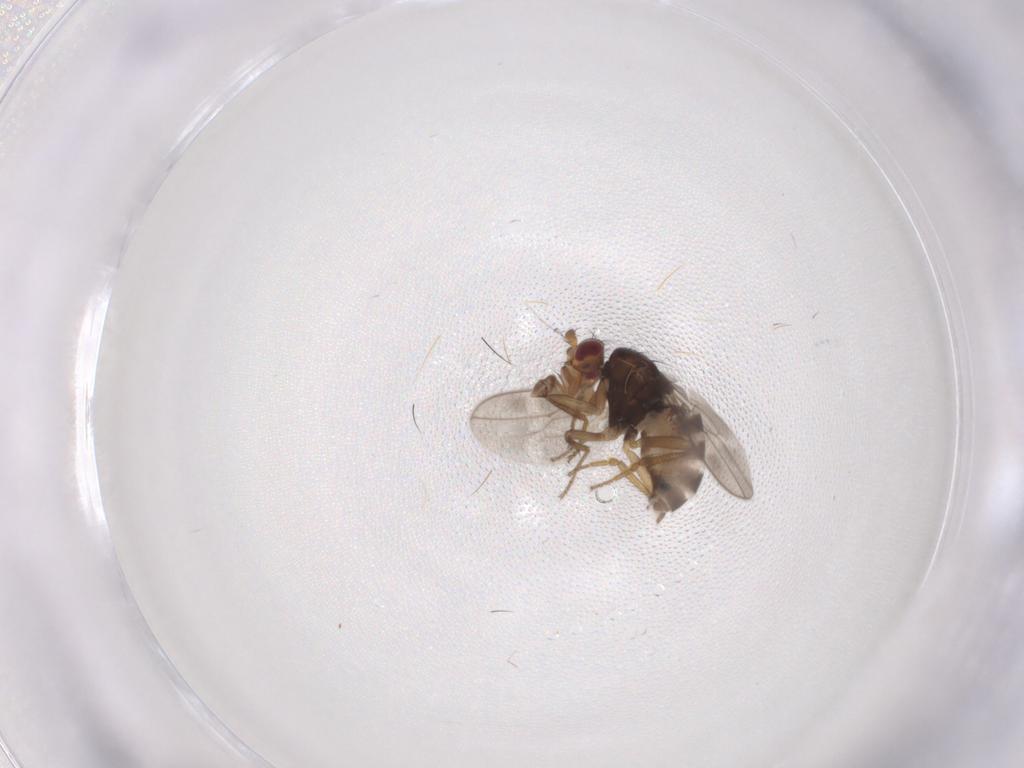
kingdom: Animalia
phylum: Arthropoda
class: Insecta
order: Diptera
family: Sphaeroceridae
